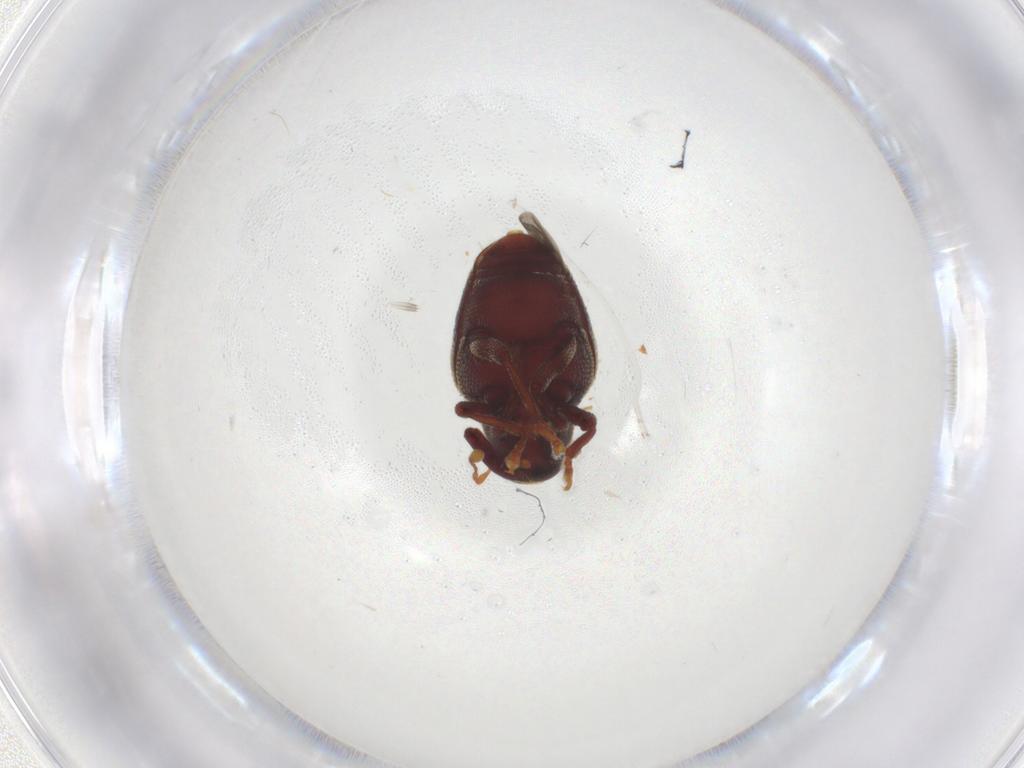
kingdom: Animalia
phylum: Arthropoda
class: Insecta
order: Coleoptera
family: Curculionidae
